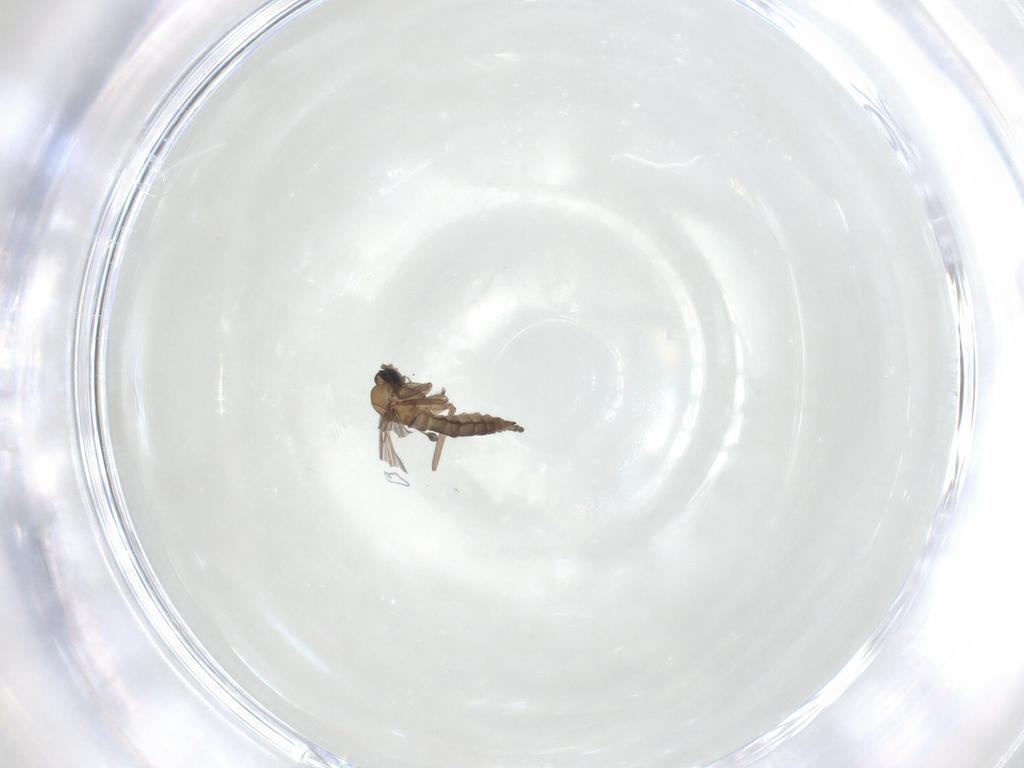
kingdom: Animalia
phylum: Arthropoda
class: Insecta
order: Diptera
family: Sciaridae
